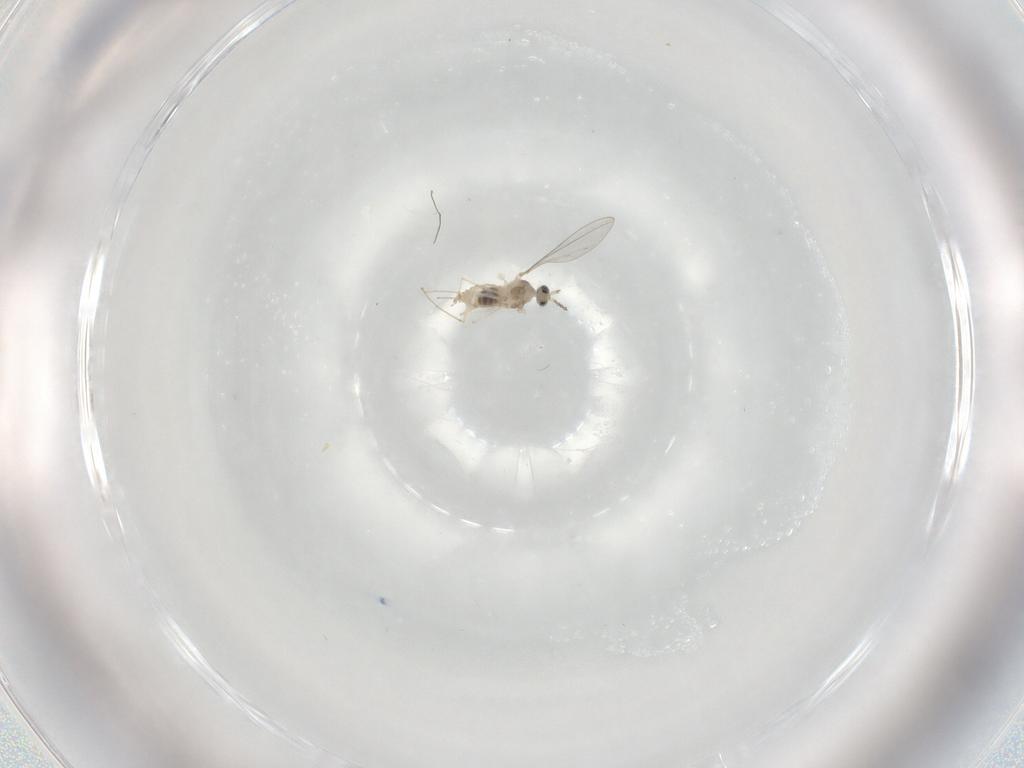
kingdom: Animalia
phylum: Arthropoda
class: Insecta
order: Diptera
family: Cecidomyiidae
